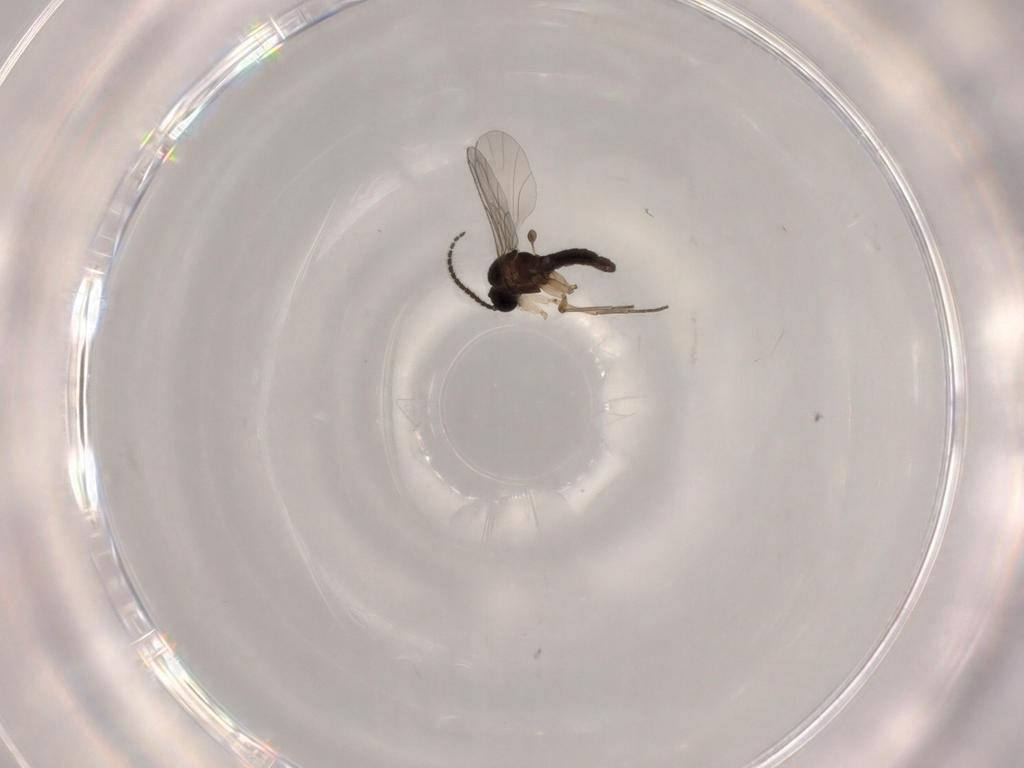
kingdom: Animalia
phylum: Arthropoda
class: Insecta
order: Diptera
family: Sciaridae
